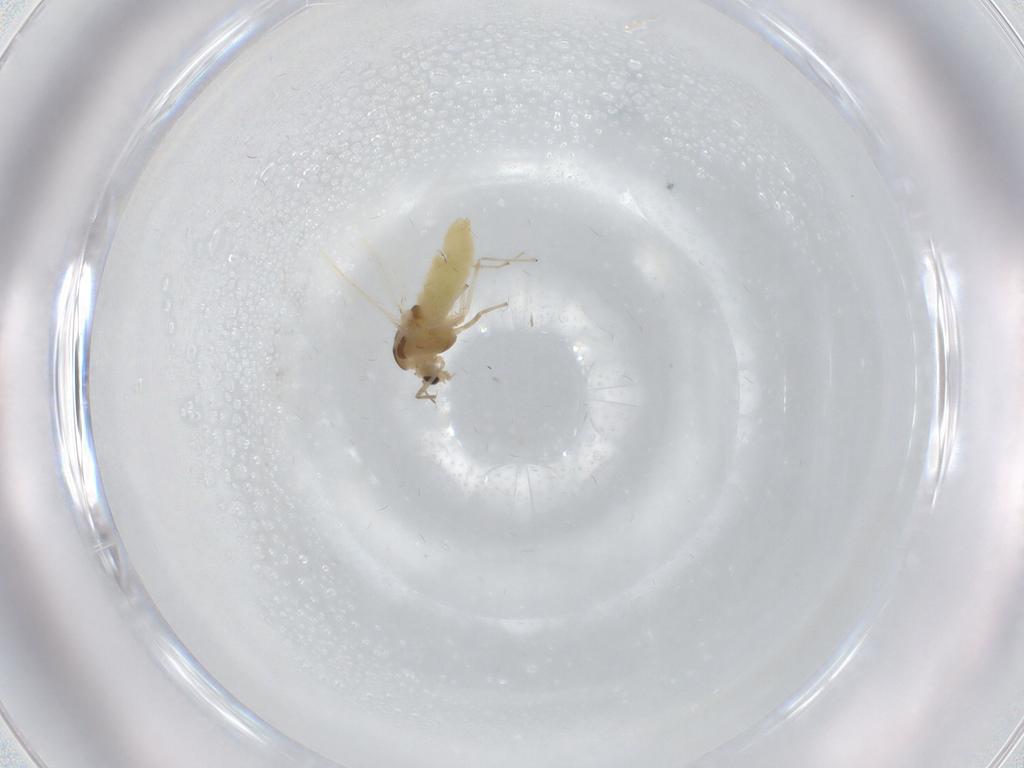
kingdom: Animalia
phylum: Arthropoda
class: Insecta
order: Diptera
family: Chironomidae
